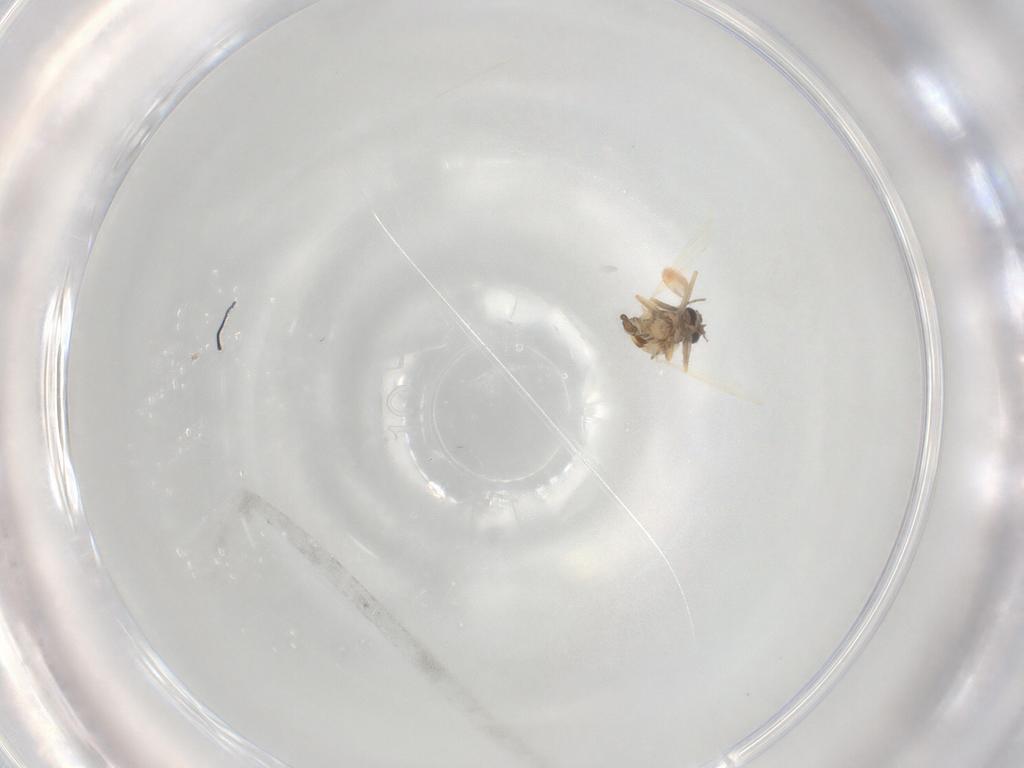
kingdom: Animalia
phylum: Arthropoda
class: Insecta
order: Diptera
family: Ceratopogonidae
